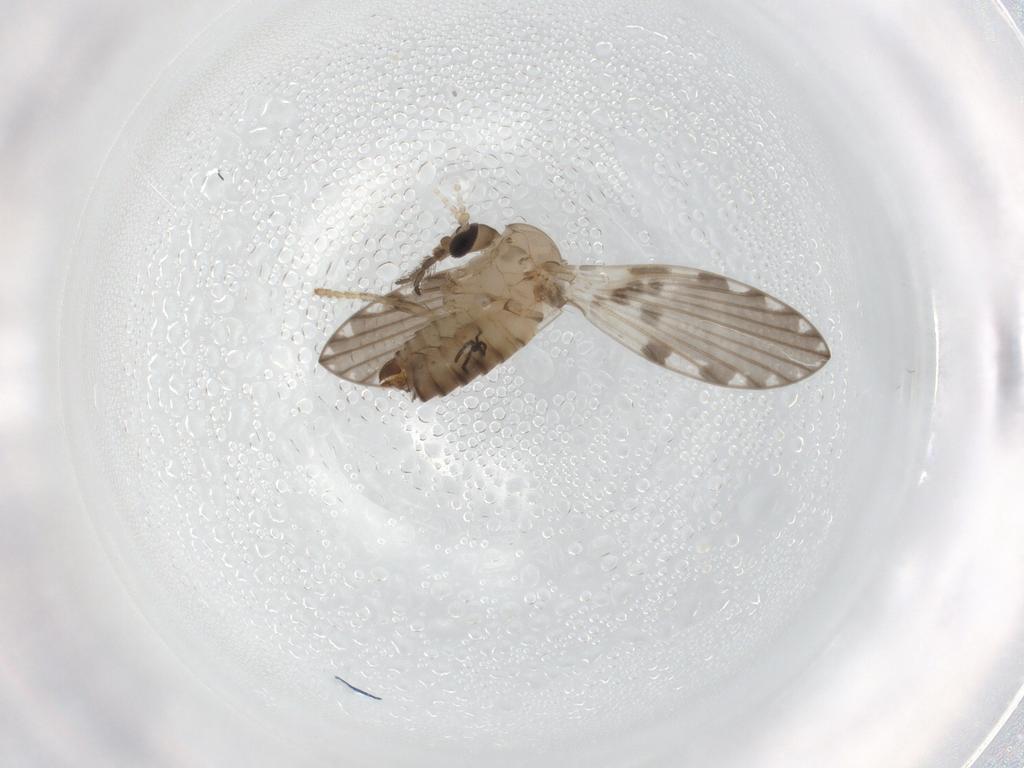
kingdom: Animalia
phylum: Arthropoda
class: Insecta
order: Diptera
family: Psychodidae
